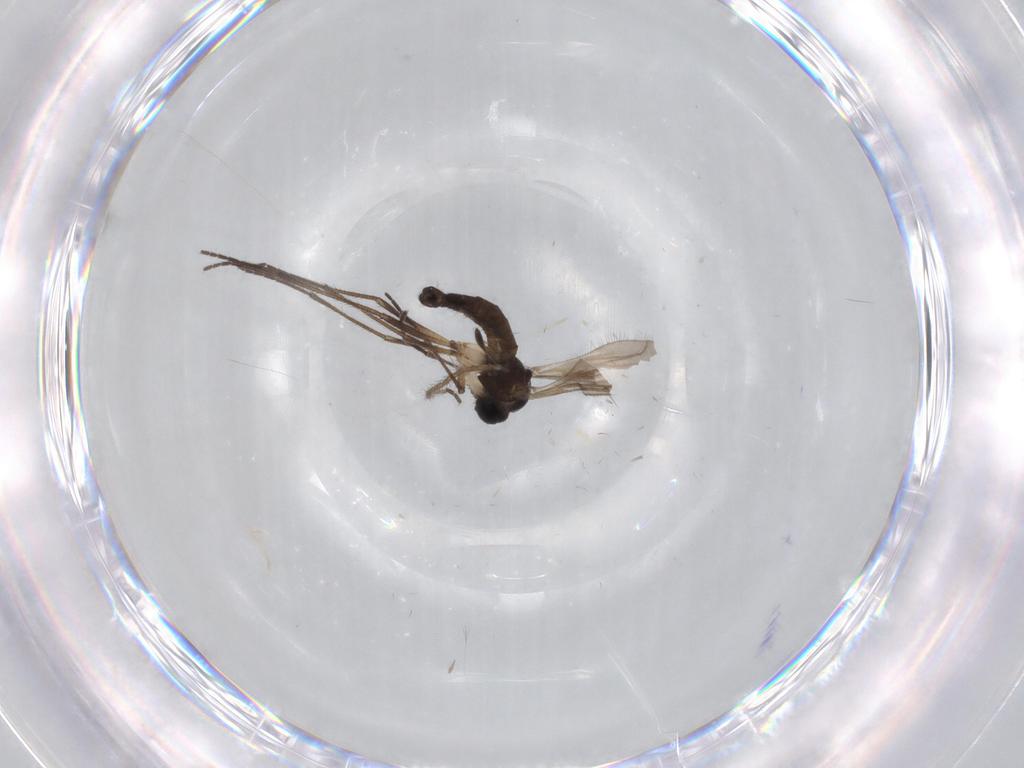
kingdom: Animalia
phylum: Arthropoda
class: Insecta
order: Diptera
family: Sciaridae
